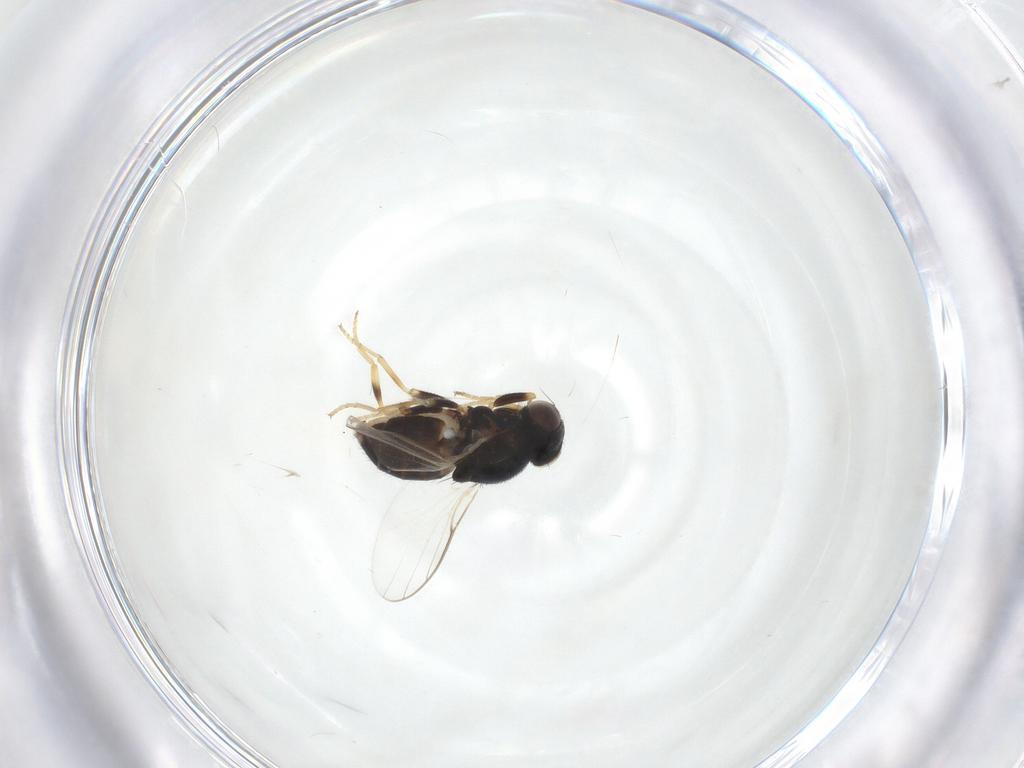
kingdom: Animalia
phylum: Arthropoda
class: Insecta
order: Diptera
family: Chloropidae
